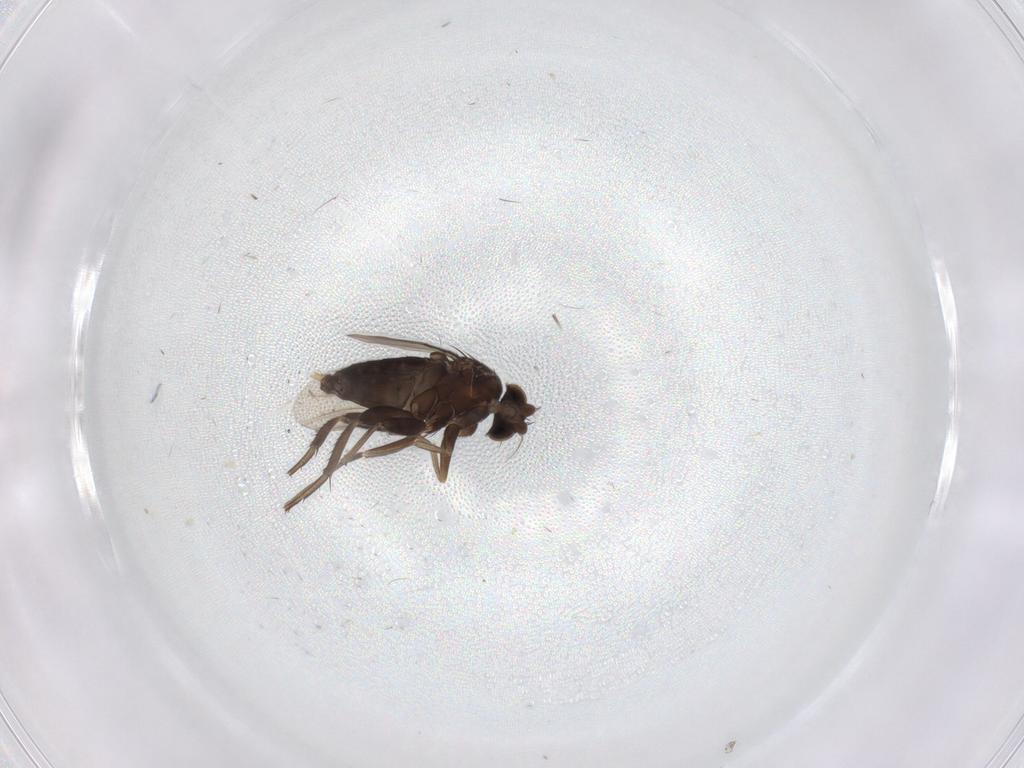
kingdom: Animalia
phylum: Arthropoda
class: Insecta
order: Diptera
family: Phoridae
